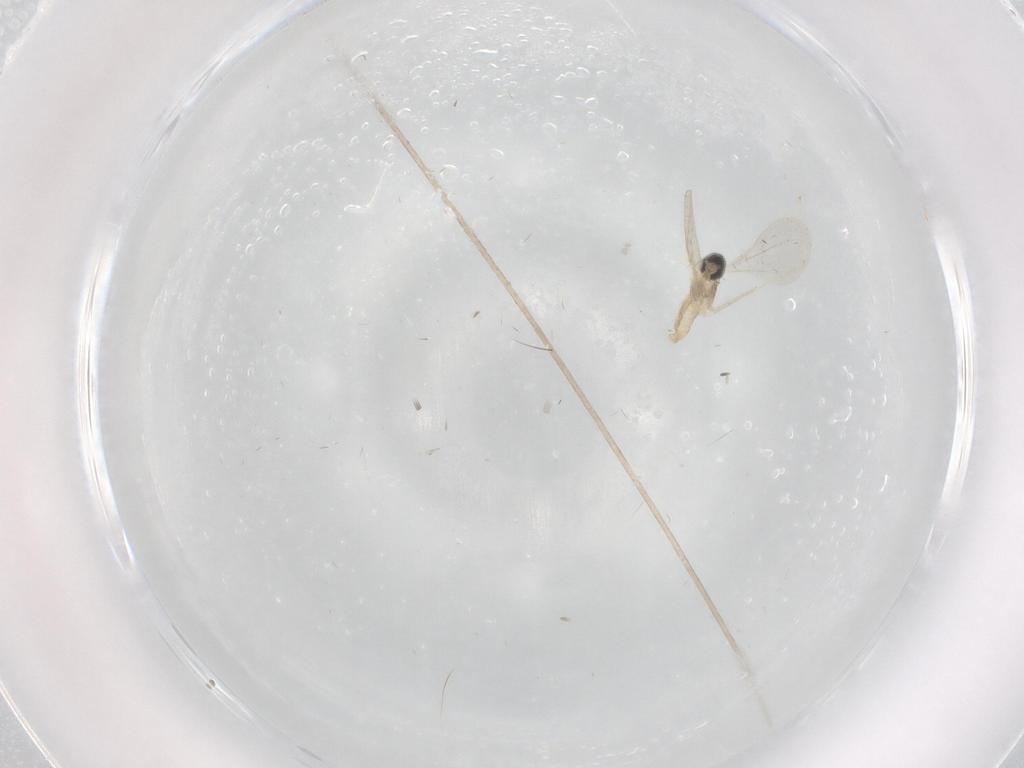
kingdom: Animalia
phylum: Arthropoda
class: Insecta
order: Diptera
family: Cecidomyiidae
